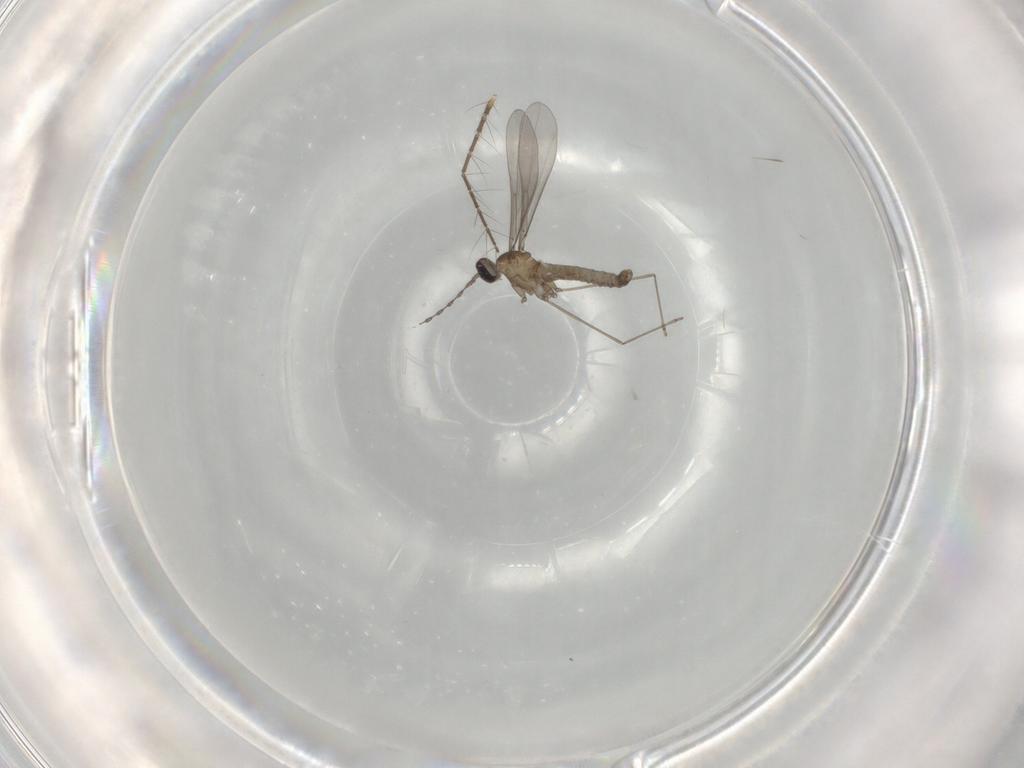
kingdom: Animalia
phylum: Arthropoda
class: Insecta
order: Diptera
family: Culicidae
